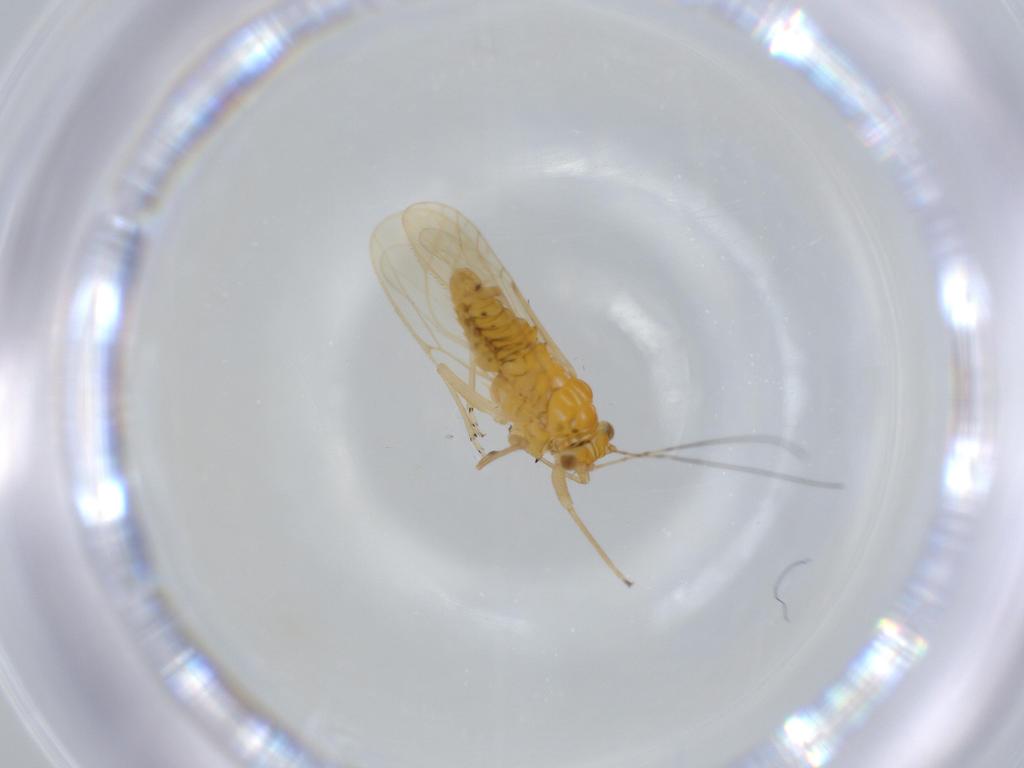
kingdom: Animalia
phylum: Arthropoda
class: Insecta
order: Hemiptera
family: Psyllidae
